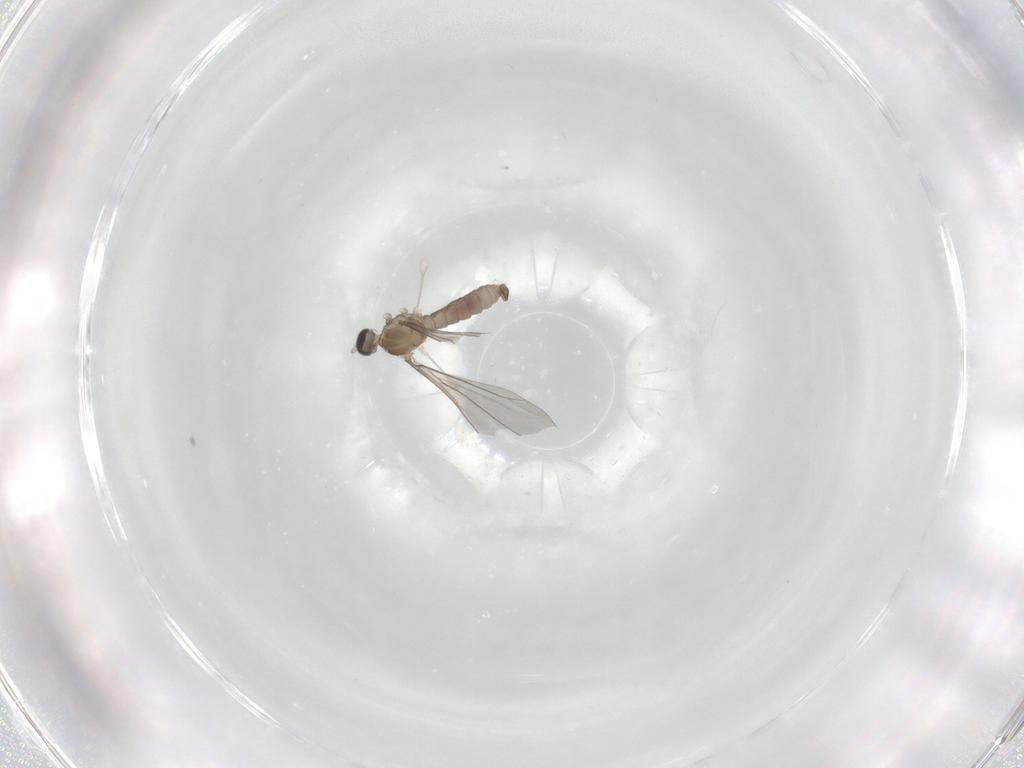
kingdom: Animalia
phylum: Arthropoda
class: Insecta
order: Diptera
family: Cecidomyiidae
